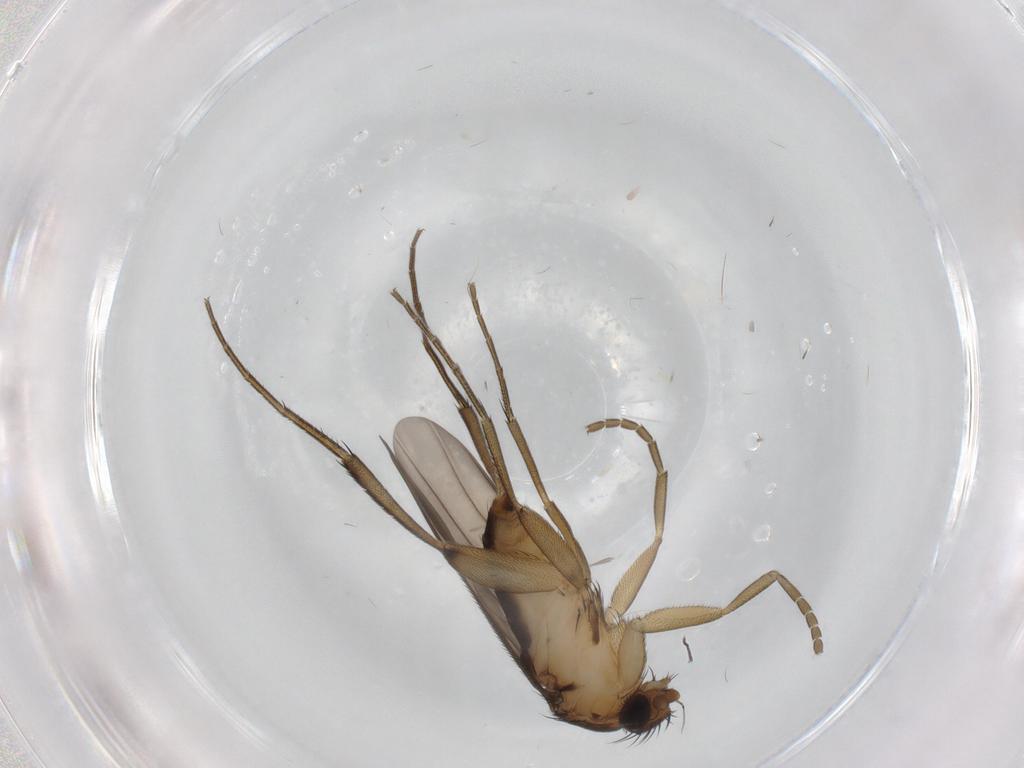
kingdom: Animalia
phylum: Arthropoda
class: Insecta
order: Diptera
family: Phoridae
